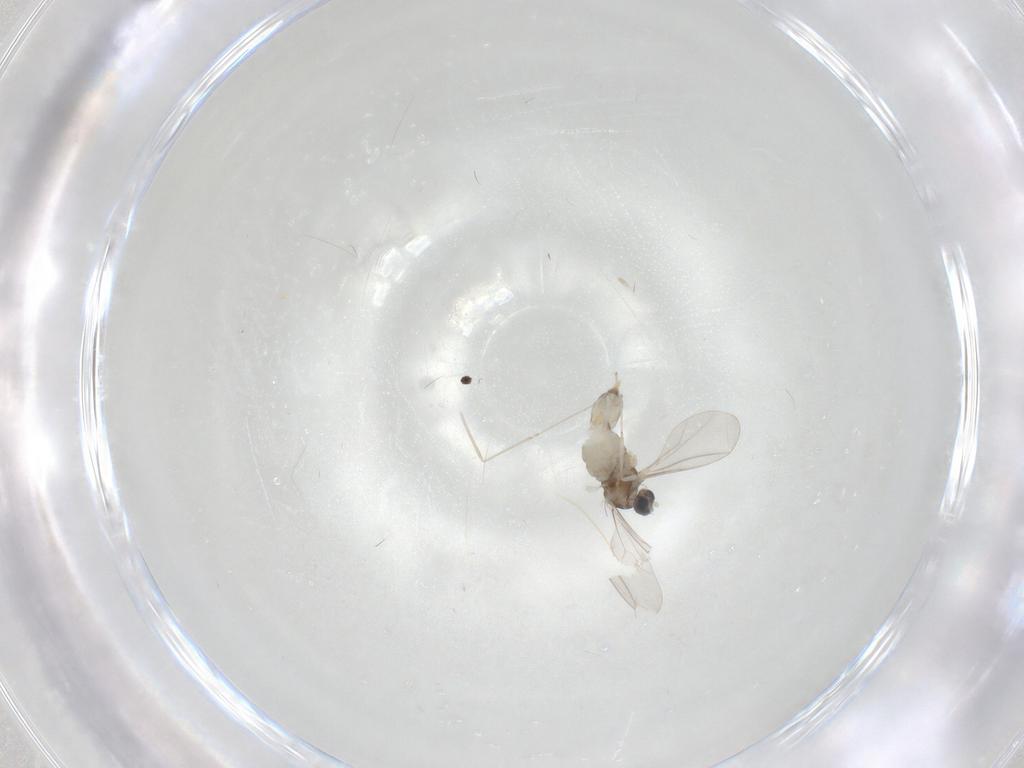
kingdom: Animalia
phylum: Arthropoda
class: Insecta
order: Diptera
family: Cecidomyiidae
